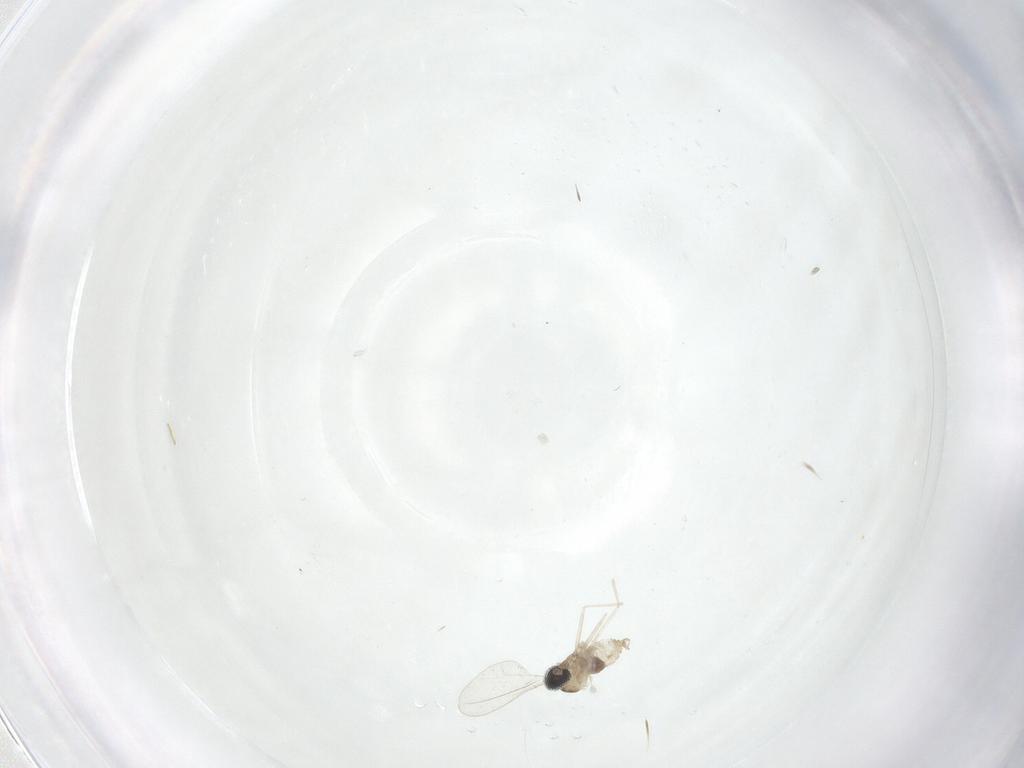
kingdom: Animalia
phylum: Arthropoda
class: Insecta
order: Diptera
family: Cecidomyiidae
